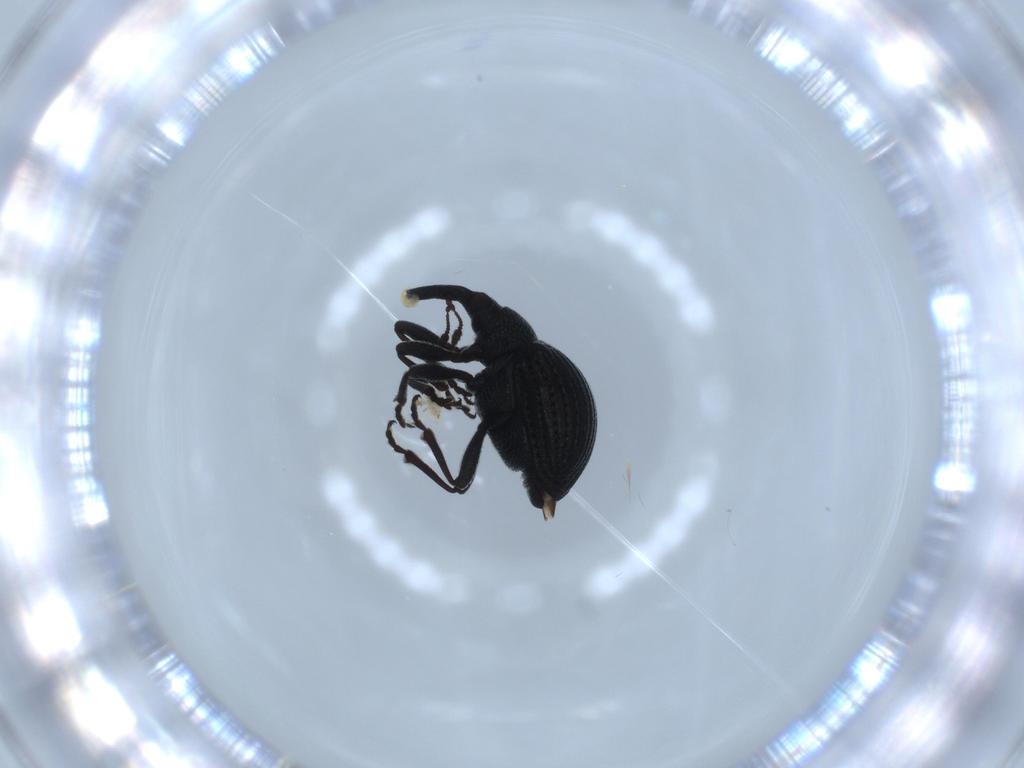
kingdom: Animalia
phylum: Arthropoda
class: Insecta
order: Coleoptera
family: Brentidae
